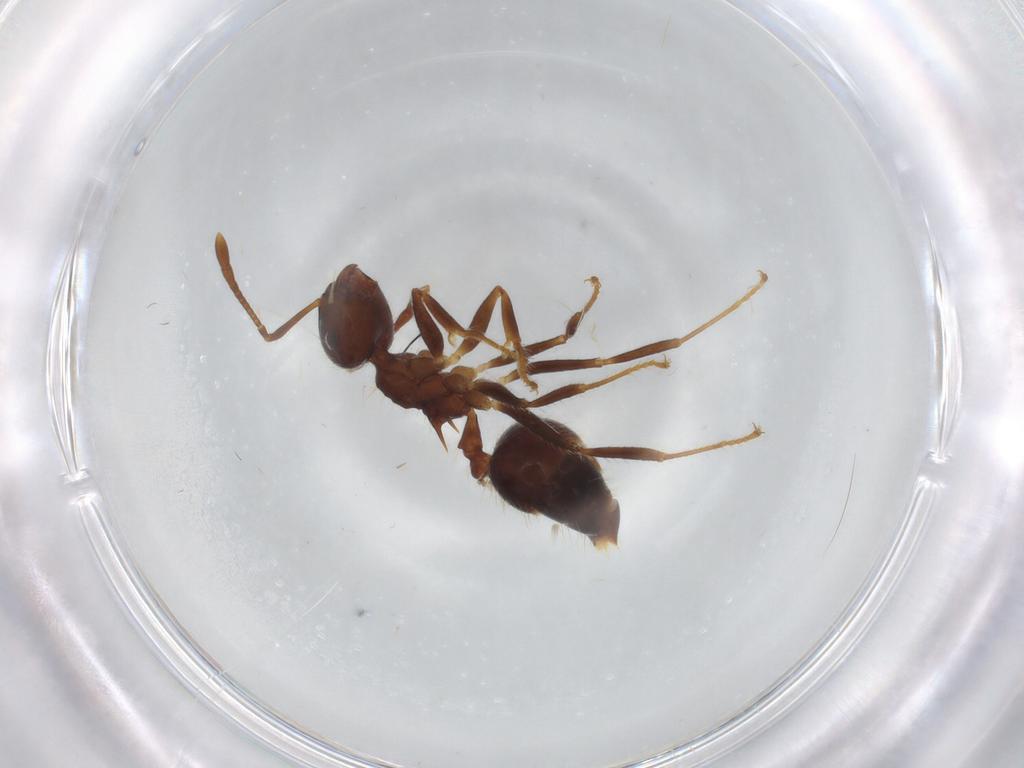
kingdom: Animalia
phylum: Arthropoda
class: Insecta
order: Hymenoptera
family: Formicidae
